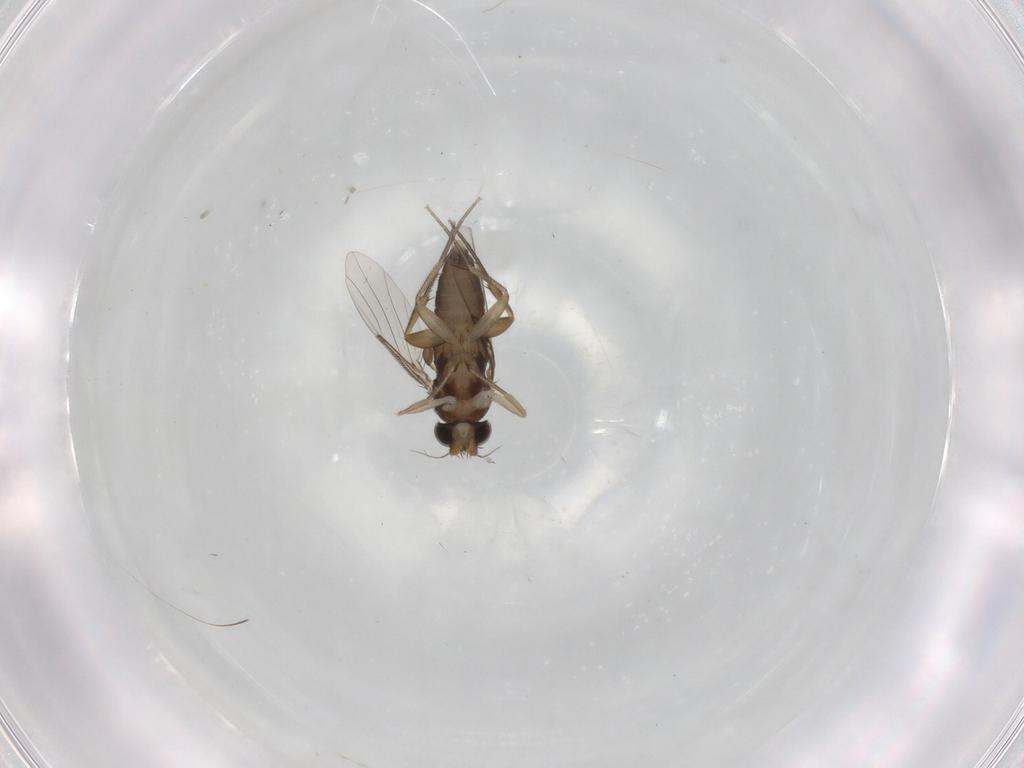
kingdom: Animalia
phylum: Arthropoda
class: Insecta
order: Diptera
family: Phoridae
